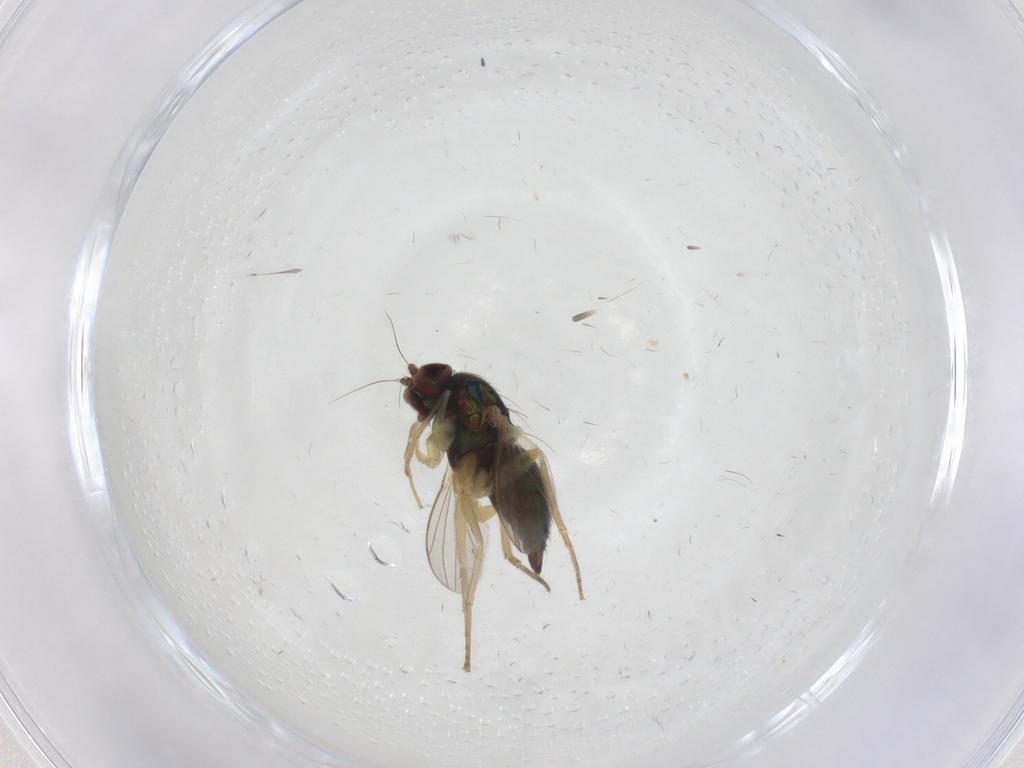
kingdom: Animalia
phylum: Arthropoda
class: Insecta
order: Diptera
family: Dolichopodidae
